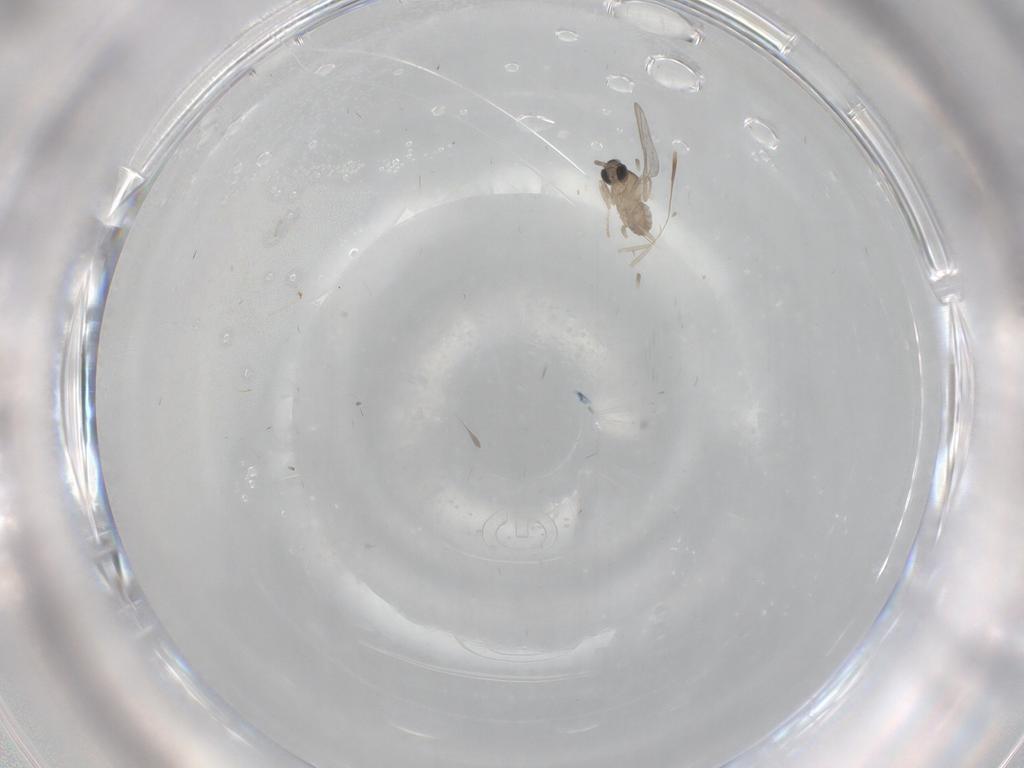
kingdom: Animalia
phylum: Arthropoda
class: Insecta
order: Diptera
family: Cecidomyiidae
